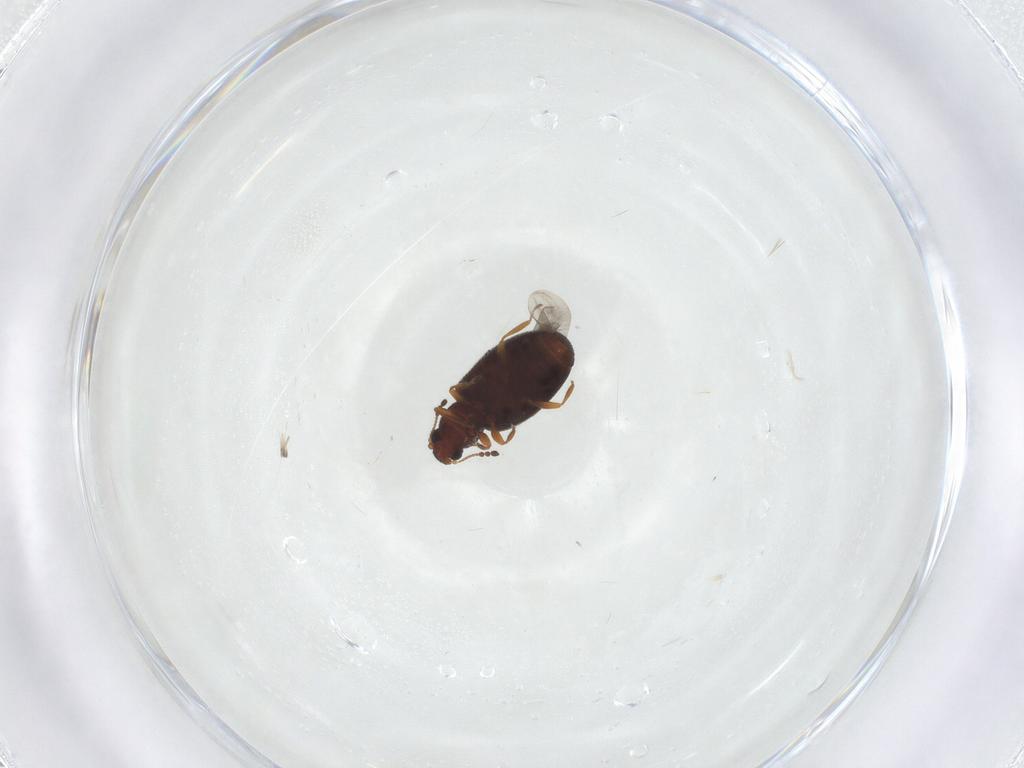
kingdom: Animalia
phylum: Arthropoda
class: Insecta
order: Coleoptera
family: Latridiidae
